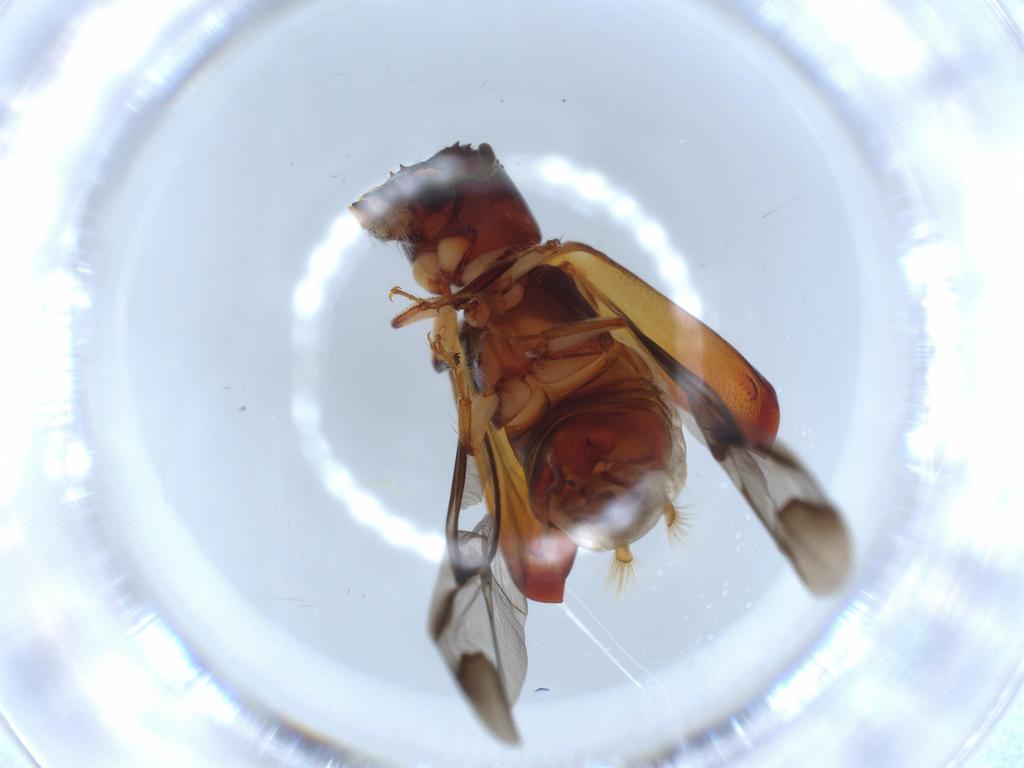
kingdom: Animalia
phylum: Arthropoda
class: Insecta
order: Coleoptera
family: Bostrichidae
